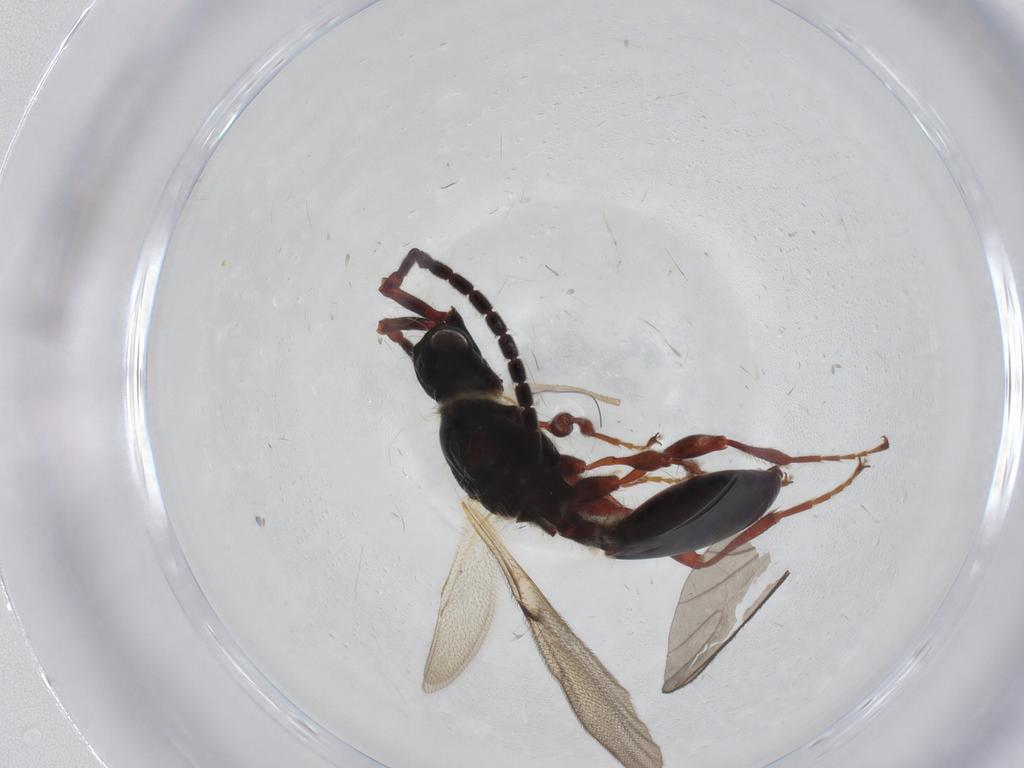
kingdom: Animalia
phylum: Arthropoda
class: Insecta
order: Hymenoptera
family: Diapriidae
